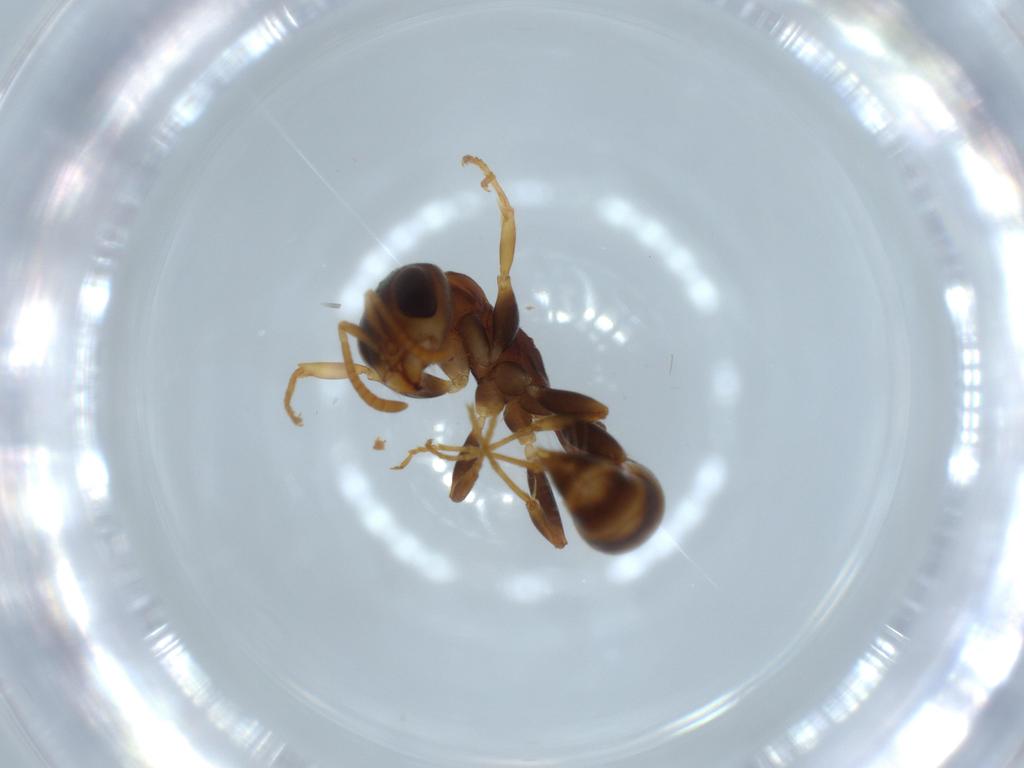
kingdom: Animalia
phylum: Arthropoda
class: Insecta
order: Hymenoptera
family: Formicidae
